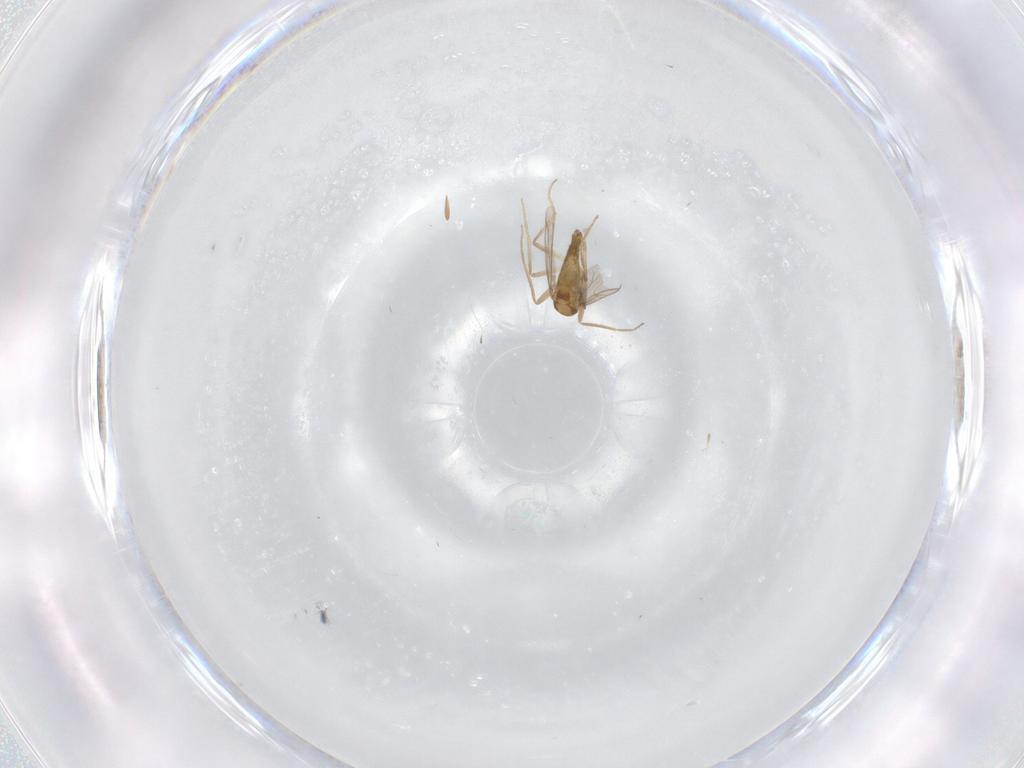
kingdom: Animalia
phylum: Arthropoda
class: Insecta
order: Diptera
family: Chironomidae
